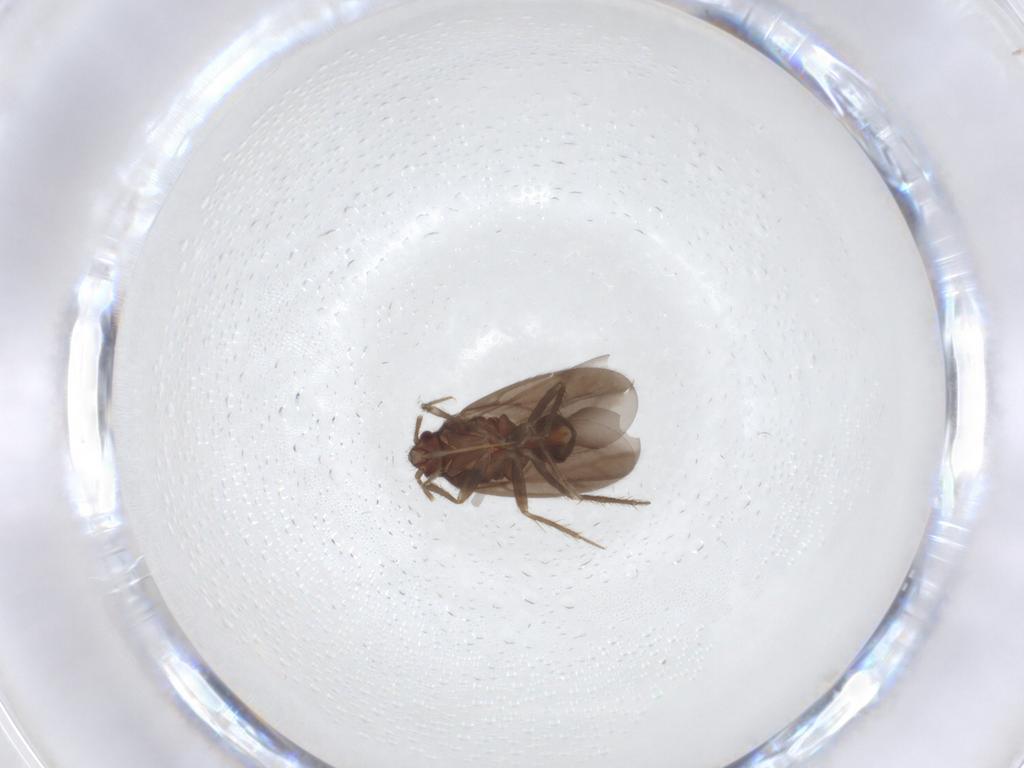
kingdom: Animalia
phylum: Arthropoda
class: Insecta
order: Hemiptera
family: Ceratocombidae
